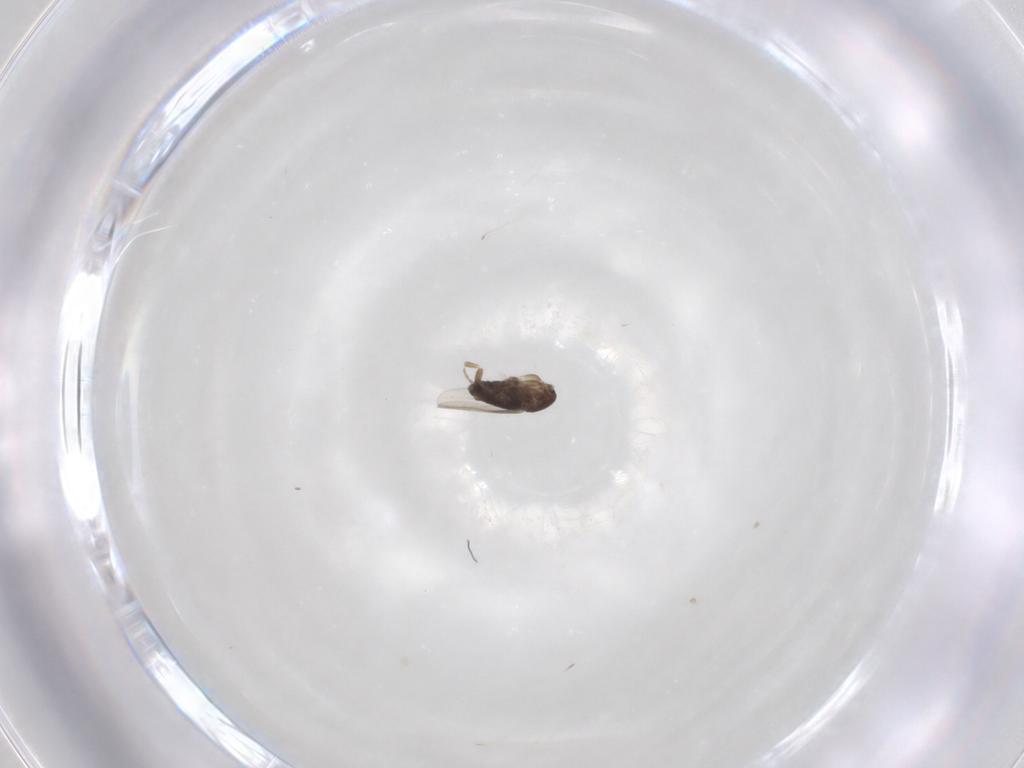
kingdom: Animalia
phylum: Arthropoda
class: Insecta
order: Diptera
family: Phoridae
